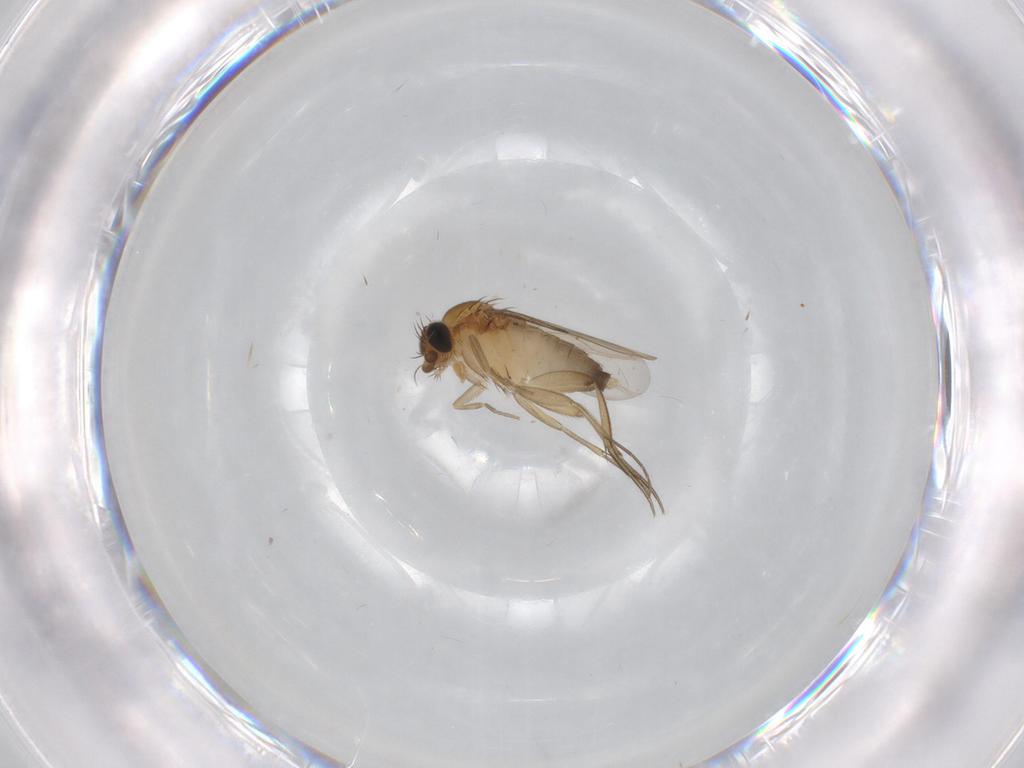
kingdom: Animalia
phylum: Arthropoda
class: Insecta
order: Diptera
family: Phoridae
